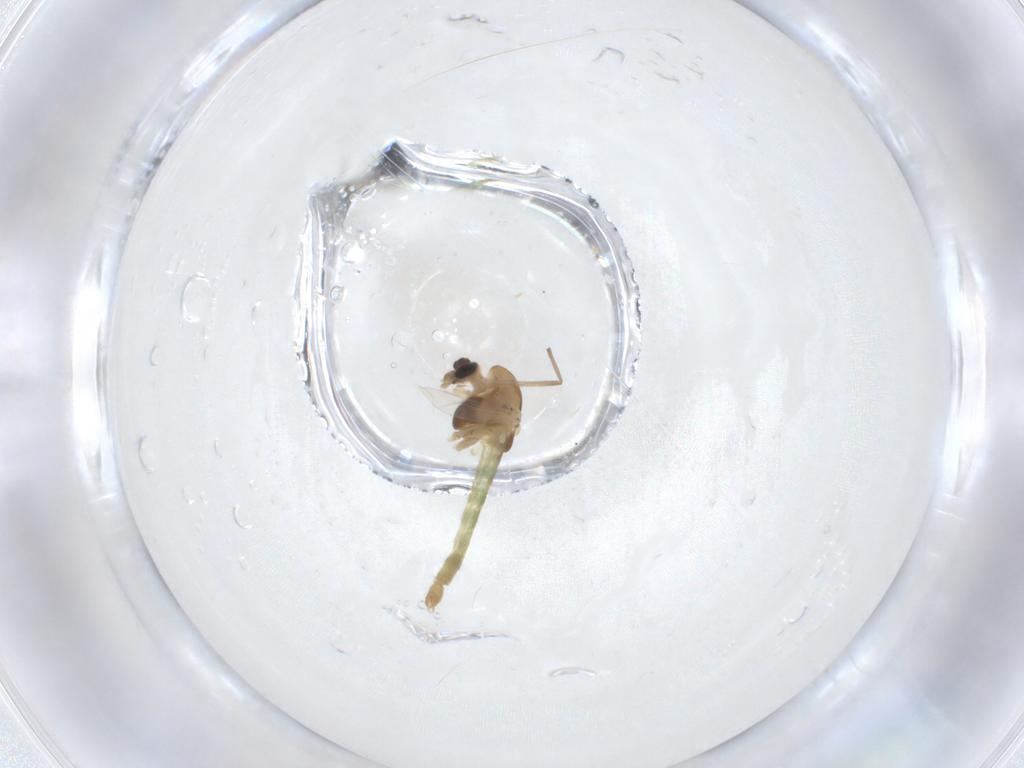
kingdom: Animalia
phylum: Arthropoda
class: Insecta
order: Diptera
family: Chironomidae
